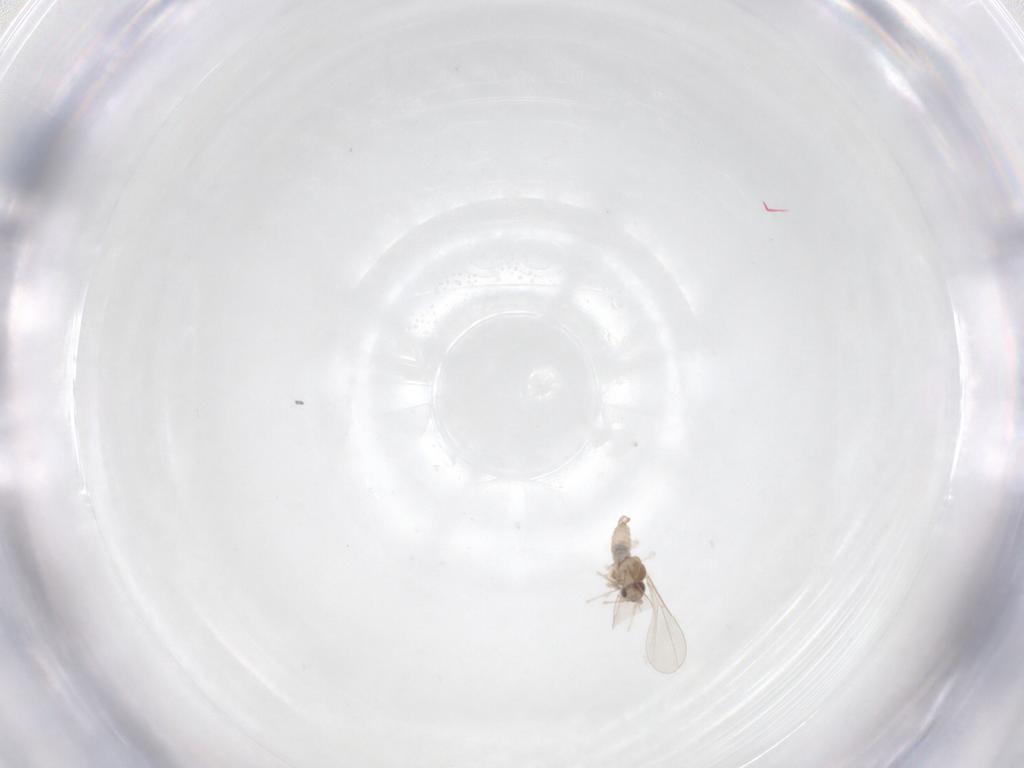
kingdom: Animalia
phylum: Arthropoda
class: Insecta
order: Diptera
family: Cecidomyiidae
